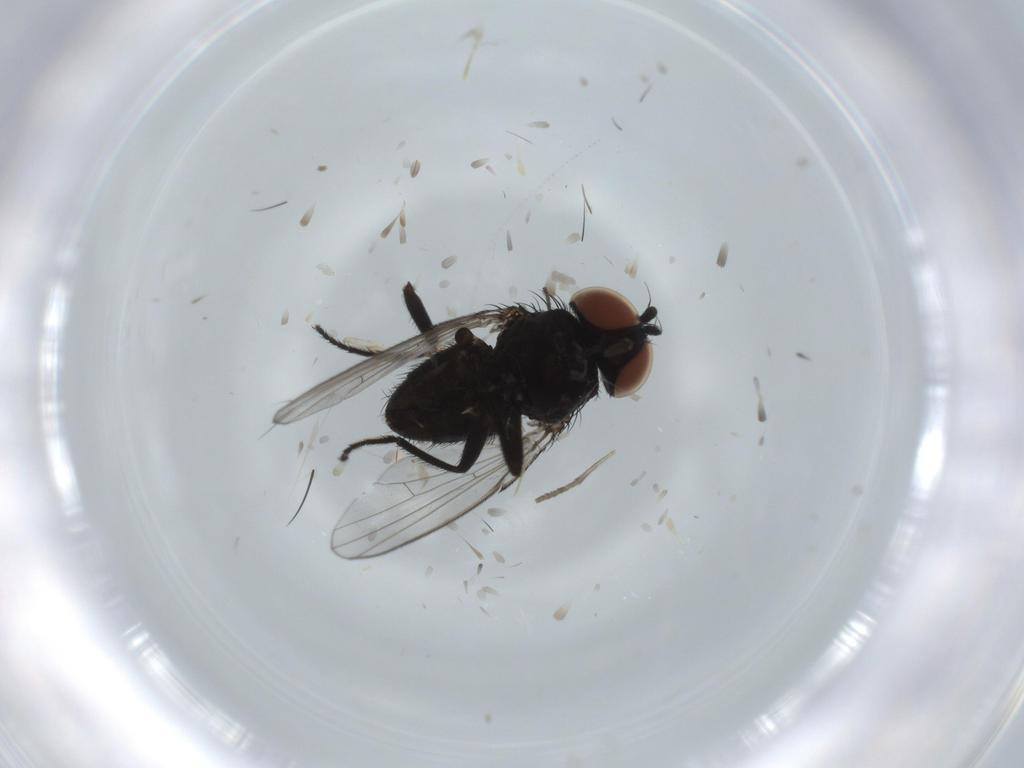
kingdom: Animalia
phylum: Arthropoda
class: Insecta
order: Diptera
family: Milichiidae
